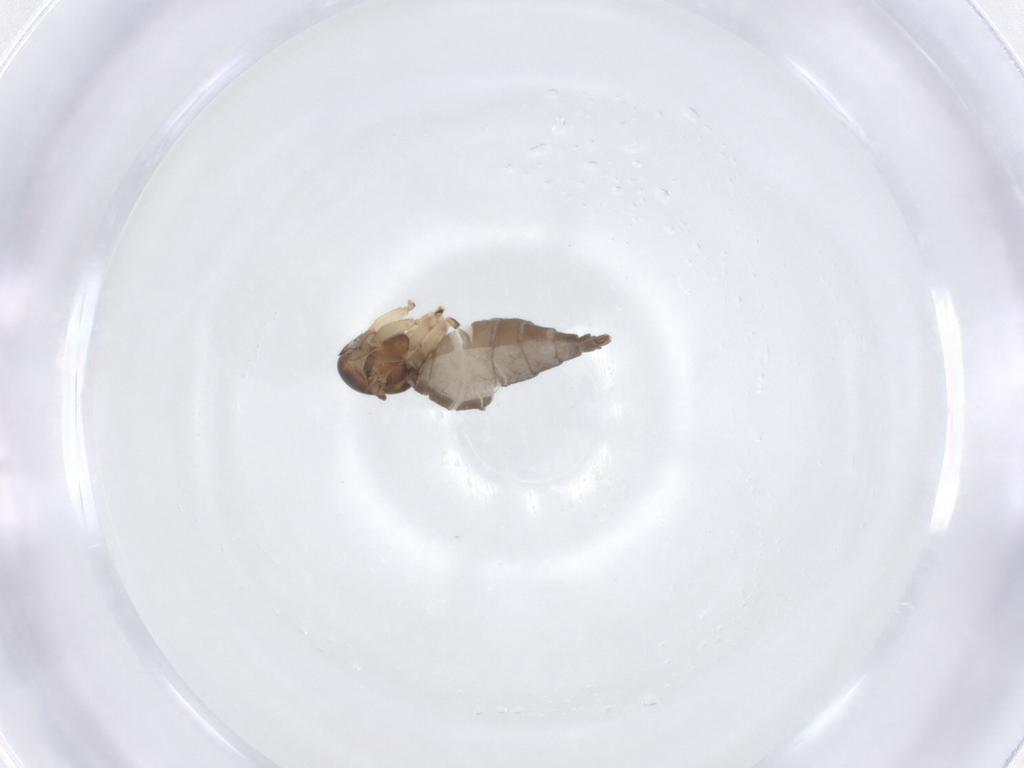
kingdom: Animalia
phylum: Arthropoda
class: Insecta
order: Diptera
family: Sciaridae
